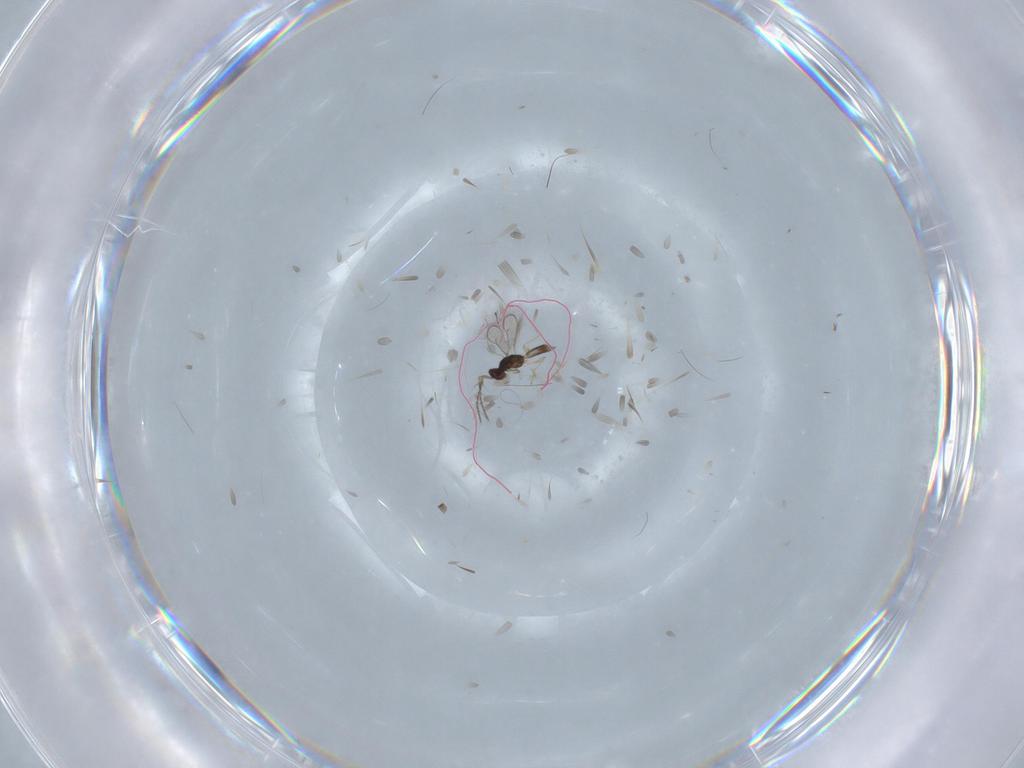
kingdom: Animalia
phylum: Arthropoda
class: Insecta
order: Hymenoptera
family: Eulophidae
